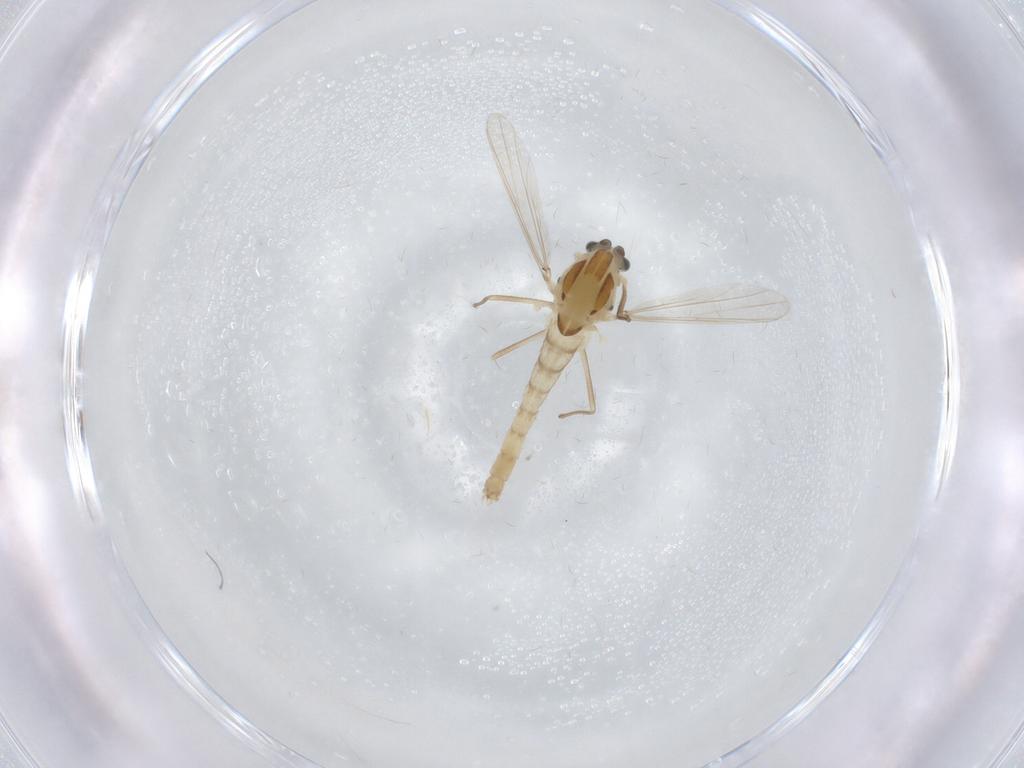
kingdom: Animalia
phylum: Arthropoda
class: Insecta
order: Diptera
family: Chironomidae
